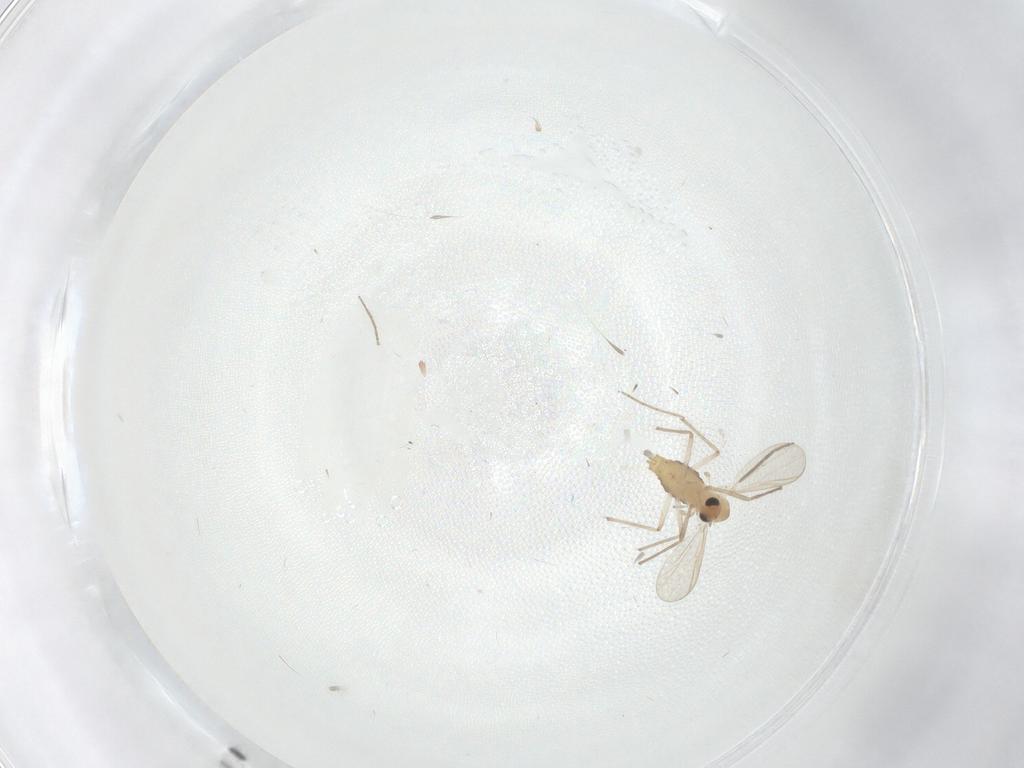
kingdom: Animalia
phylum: Arthropoda
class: Insecta
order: Diptera
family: Chironomidae
